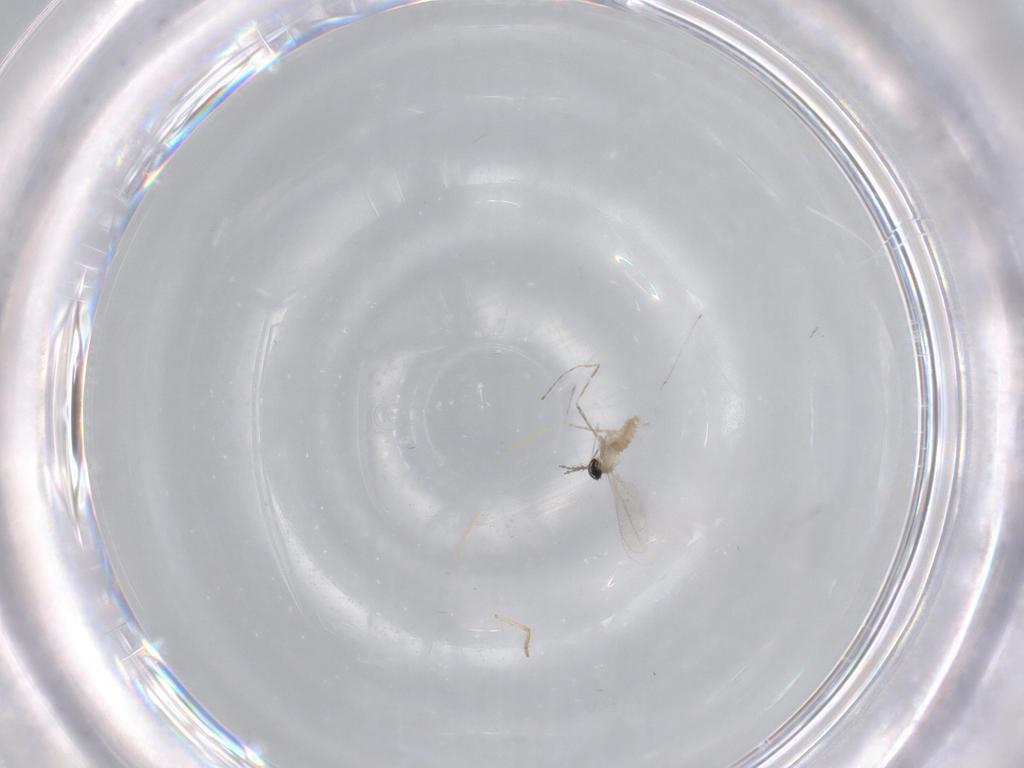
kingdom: Animalia
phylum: Arthropoda
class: Insecta
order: Diptera
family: Cecidomyiidae
